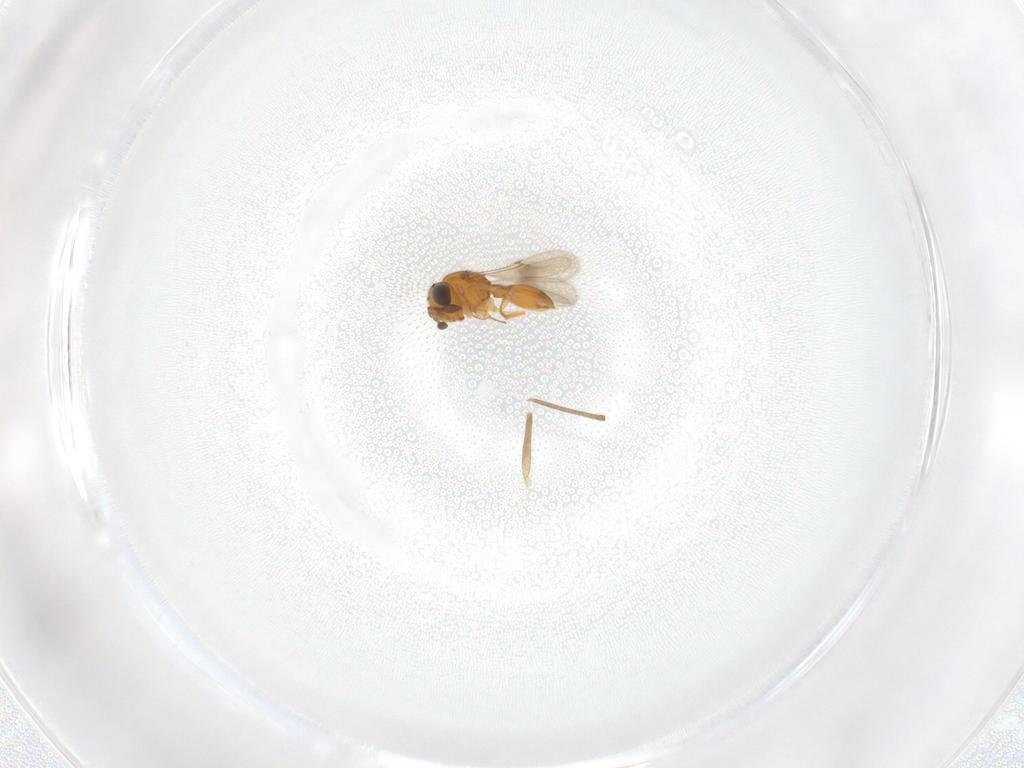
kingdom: Animalia
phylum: Arthropoda
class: Insecta
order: Hymenoptera
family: Scelionidae
